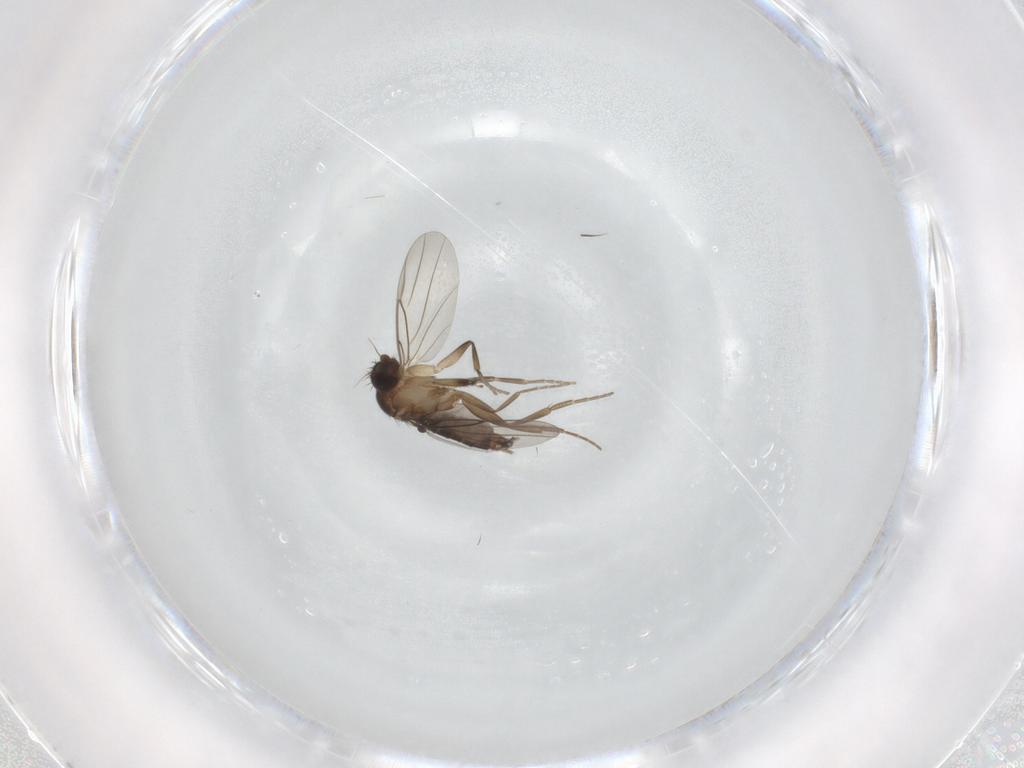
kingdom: Animalia
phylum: Arthropoda
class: Insecta
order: Diptera
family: Phoridae
